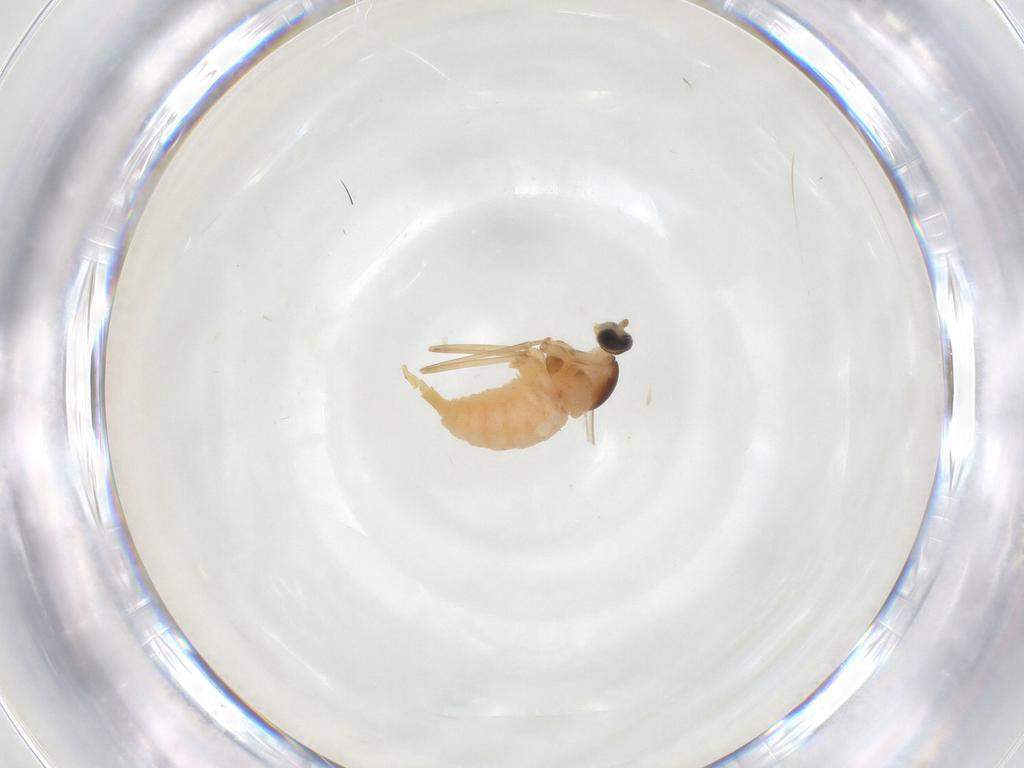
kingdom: Animalia
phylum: Arthropoda
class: Insecta
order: Diptera
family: Cecidomyiidae
